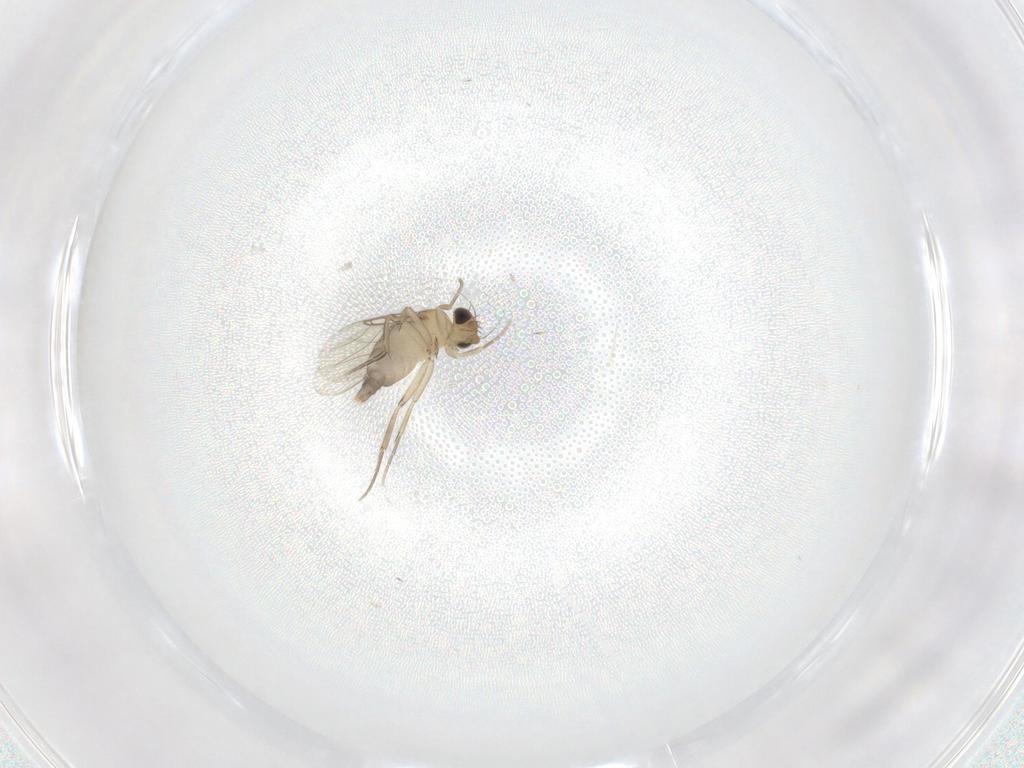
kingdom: Animalia
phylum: Arthropoda
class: Insecta
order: Diptera
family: Phoridae
